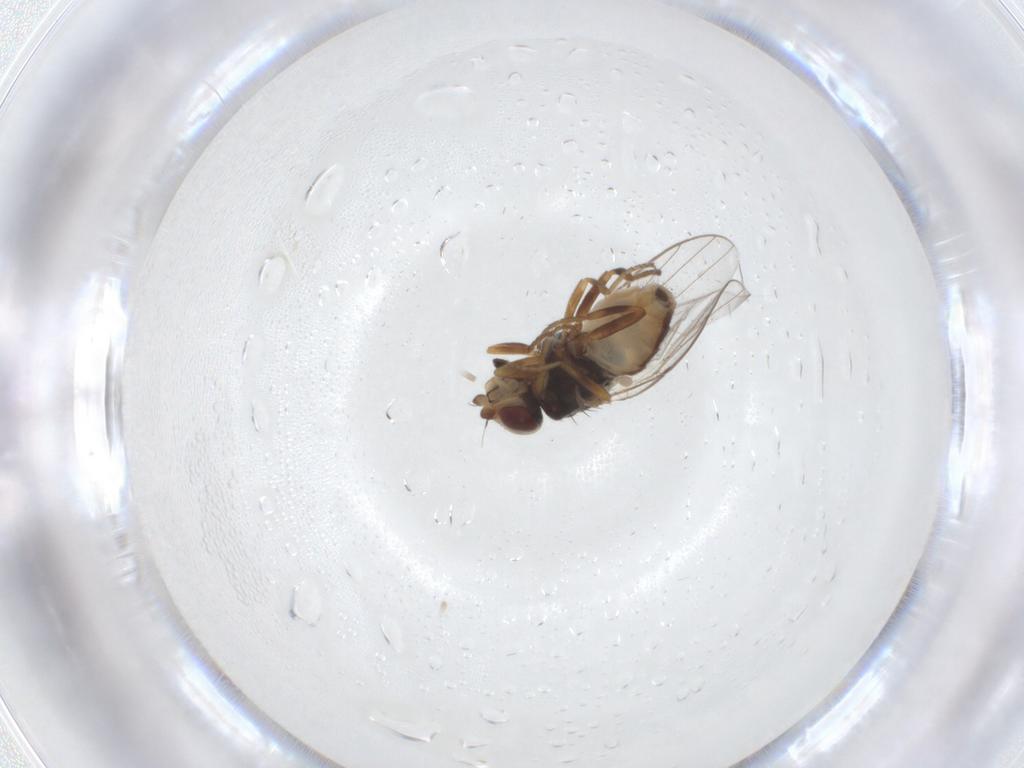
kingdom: Animalia
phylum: Arthropoda
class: Insecta
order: Diptera
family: Chloropidae
